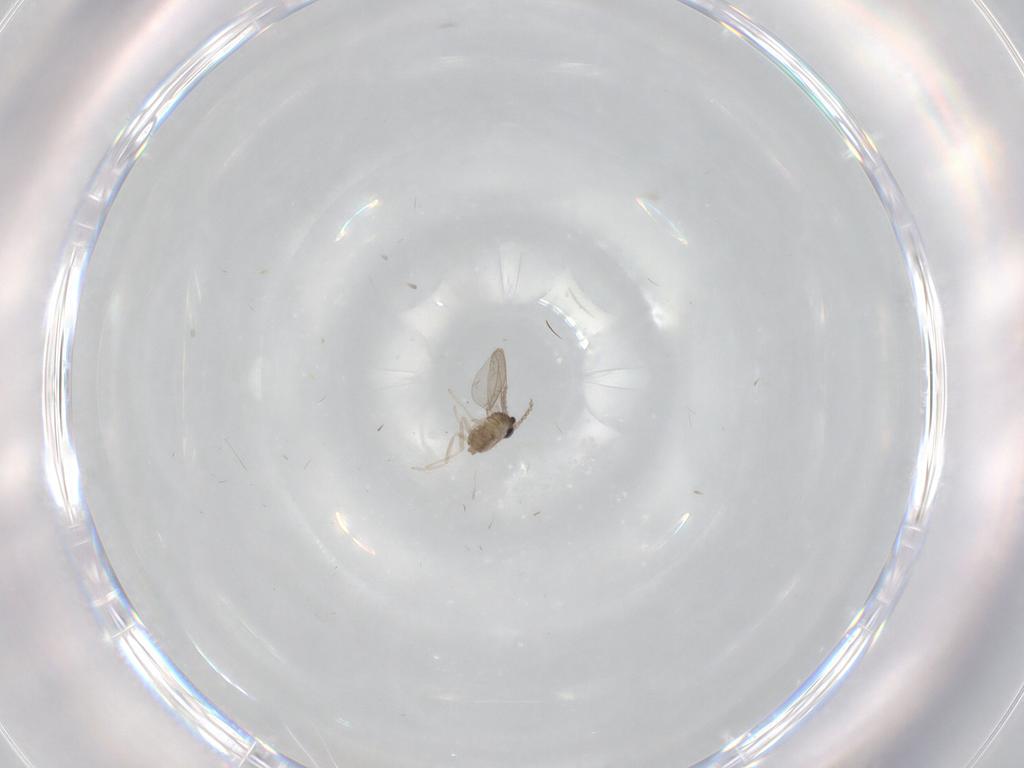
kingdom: Animalia
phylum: Arthropoda
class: Insecta
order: Diptera
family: Cecidomyiidae
